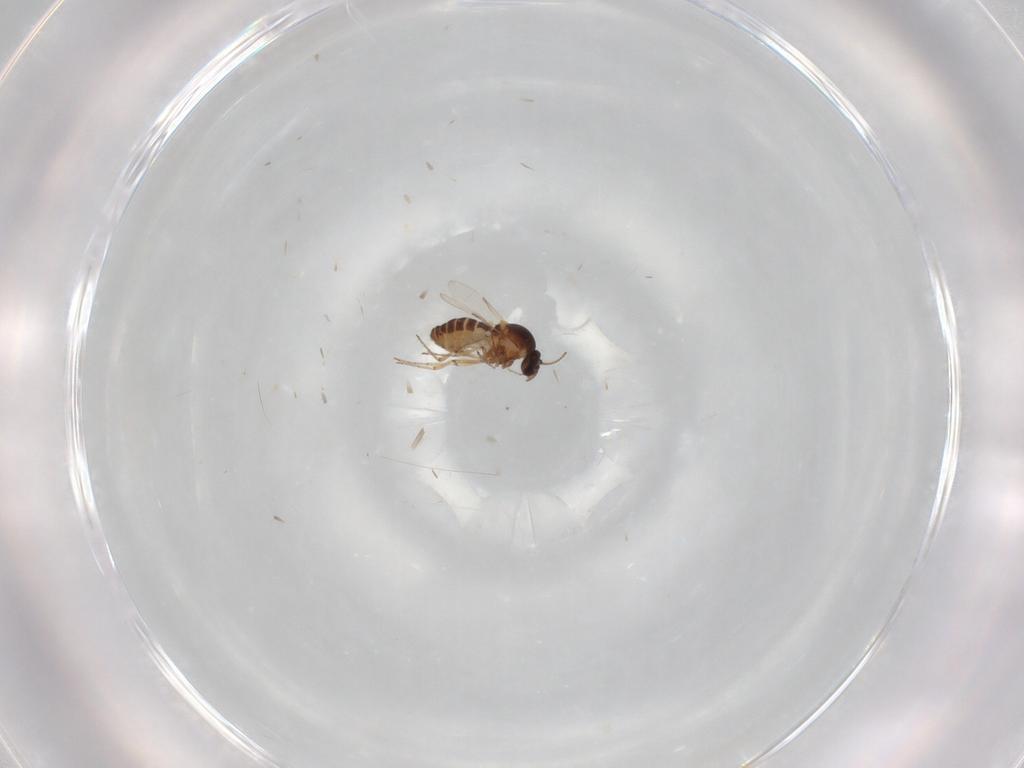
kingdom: Animalia
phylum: Arthropoda
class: Insecta
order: Diptera
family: Ceratopogonidae
